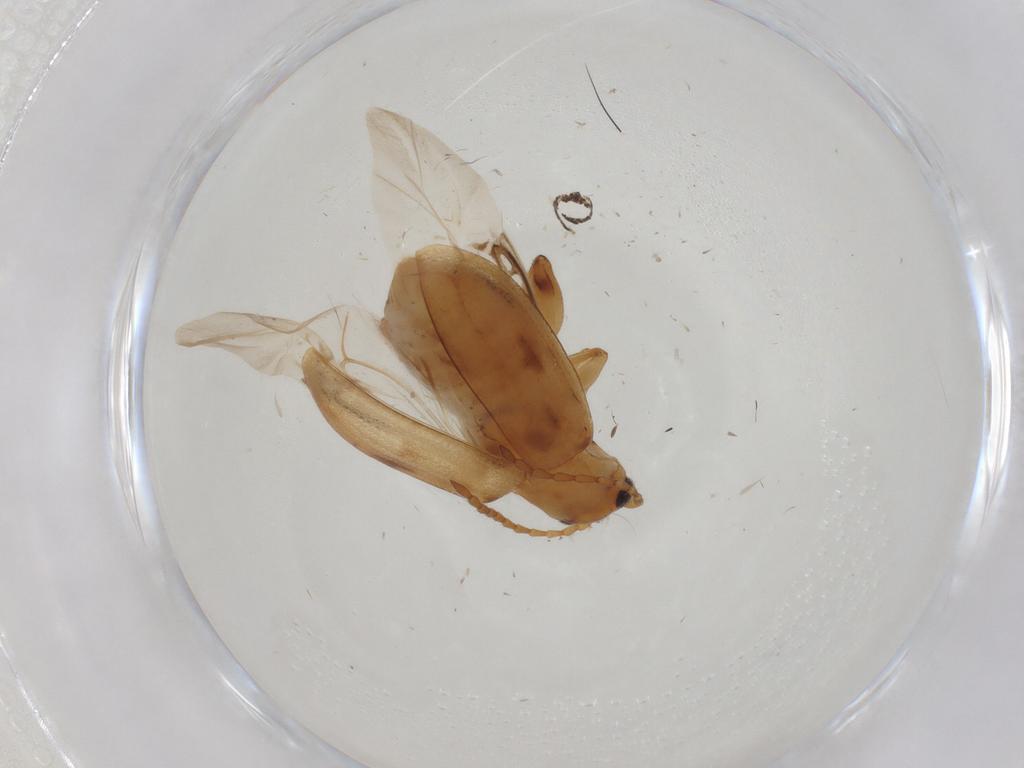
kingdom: Animalia
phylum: Arthropoda
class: Insecta
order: Coleoptera
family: Chrysomelidae
